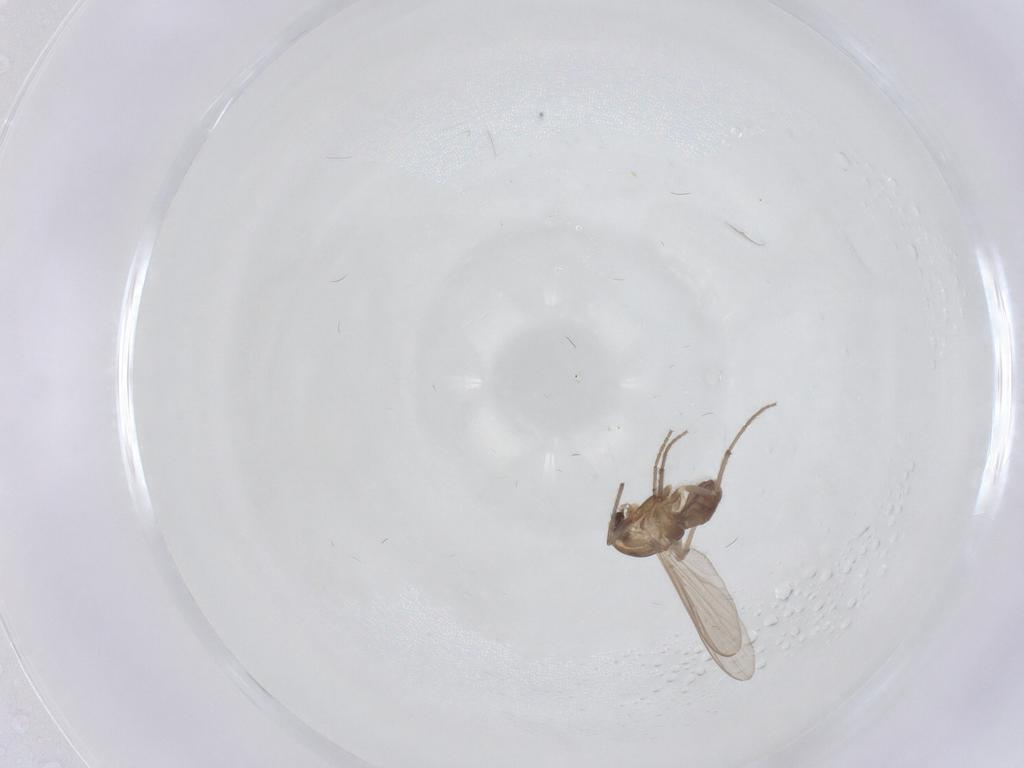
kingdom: Animalia
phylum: Arthropoda
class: Insecta
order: Diptera
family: Chironomidae
